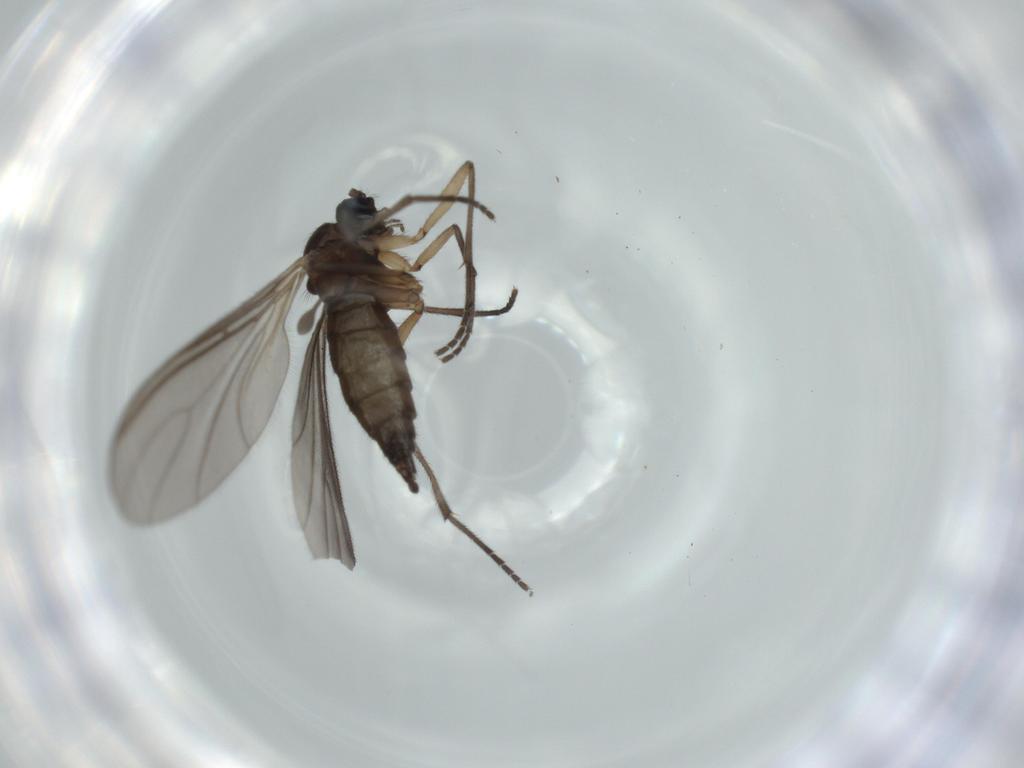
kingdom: Animalia
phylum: Arthropoda
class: Insecta
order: Diptera
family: Sciaridae
